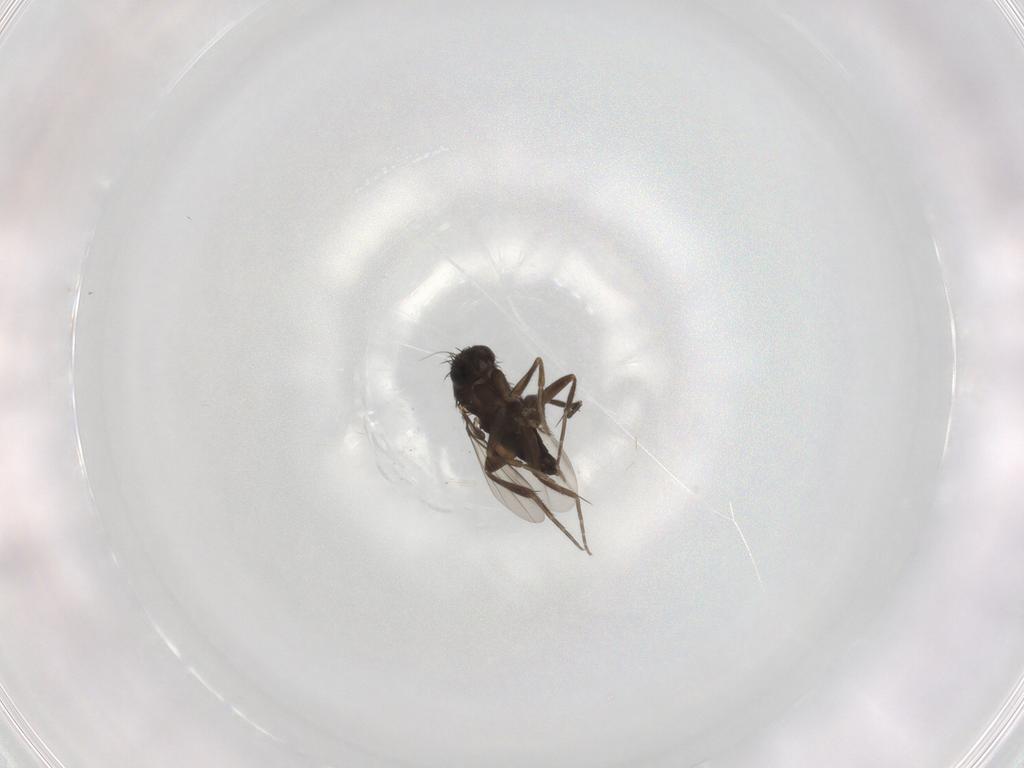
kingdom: Animalia
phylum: Arthropoda
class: Insecta
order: Diptera
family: Phoridae
